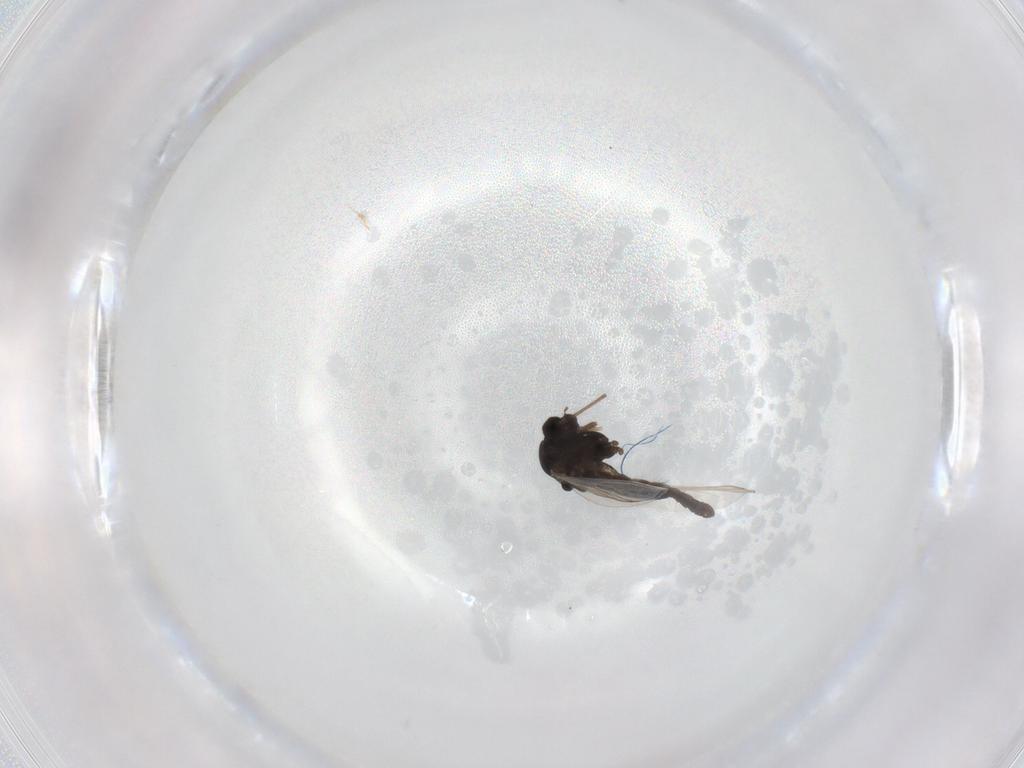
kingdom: Animalia
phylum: Arthropoda
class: Insecta
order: Diptera
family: Chironomidae
